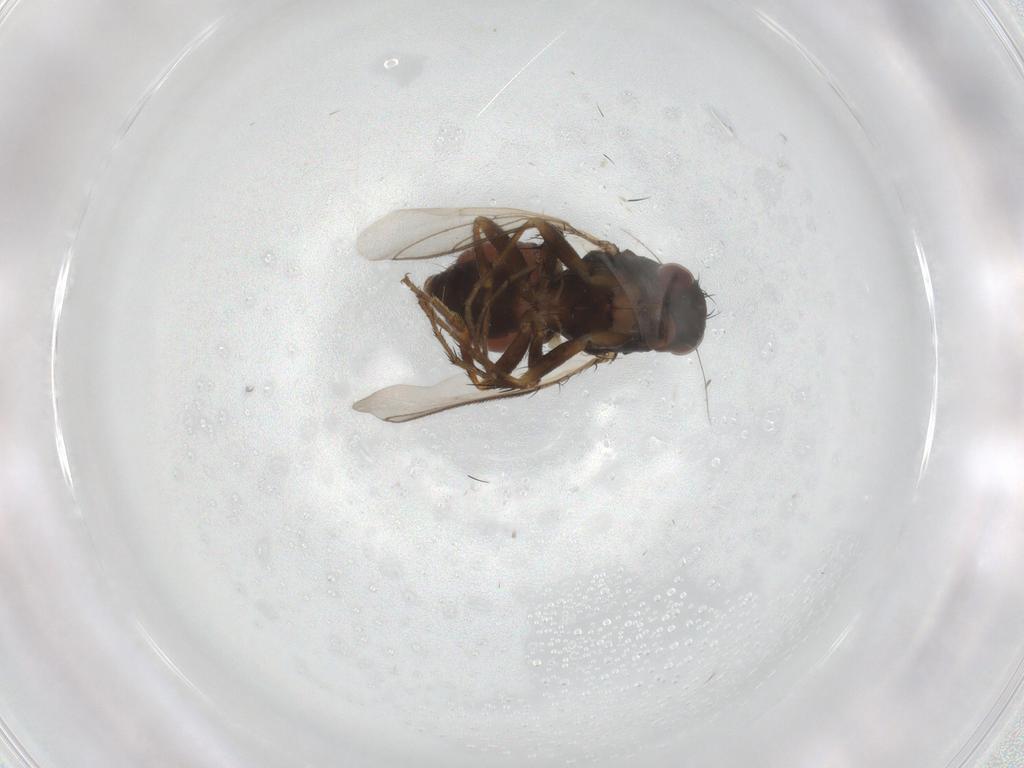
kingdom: Animalia
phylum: Arthropoda
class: Insecta
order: Diptera
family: Sphaeroceridae
